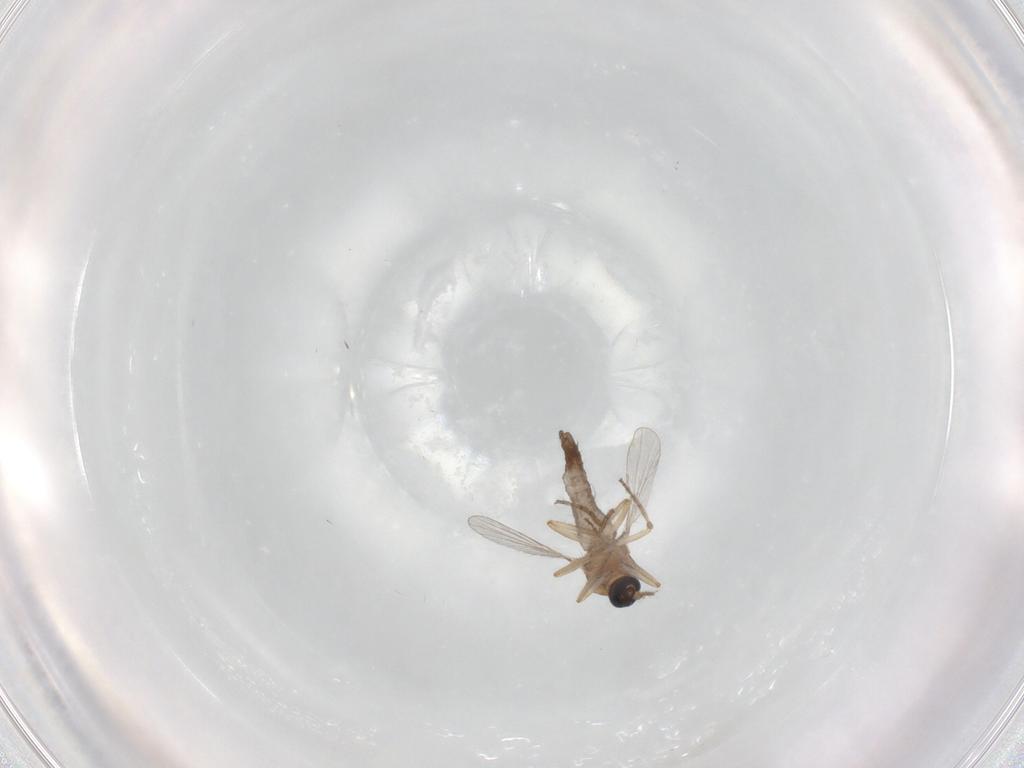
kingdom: Animalia
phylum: Arthropoda
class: Insecta
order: Diptera
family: Ceratopogonidae
